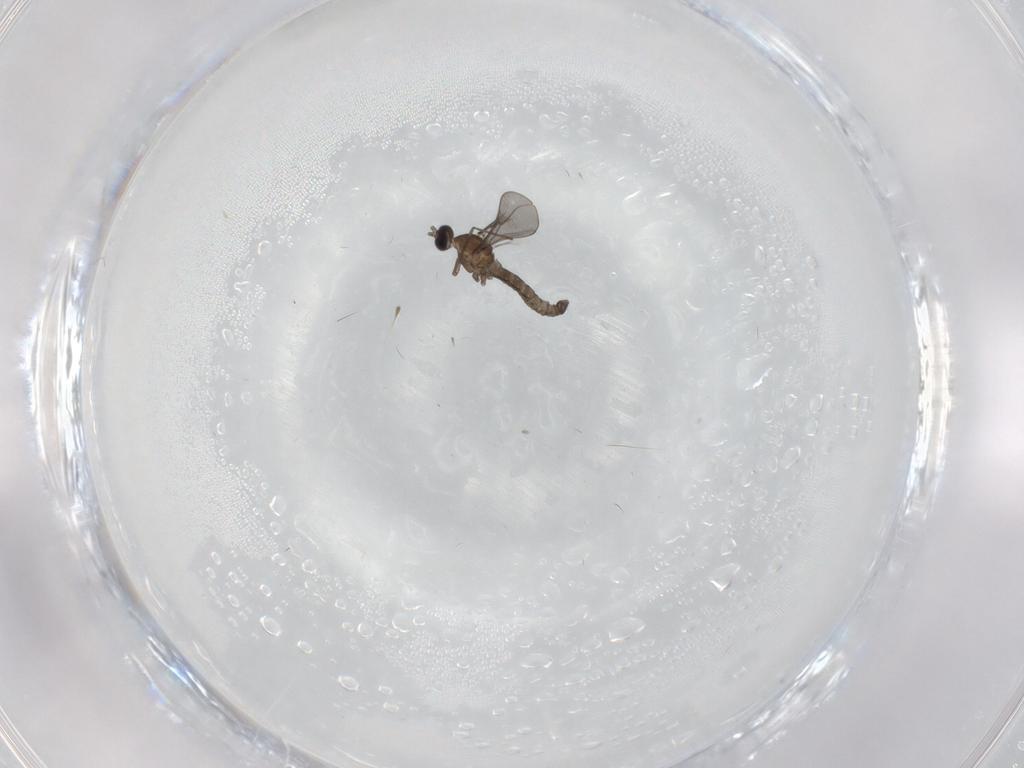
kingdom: Animalia
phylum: Arthropoda
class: Insecta
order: Diptera
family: Cecidomyiidae
